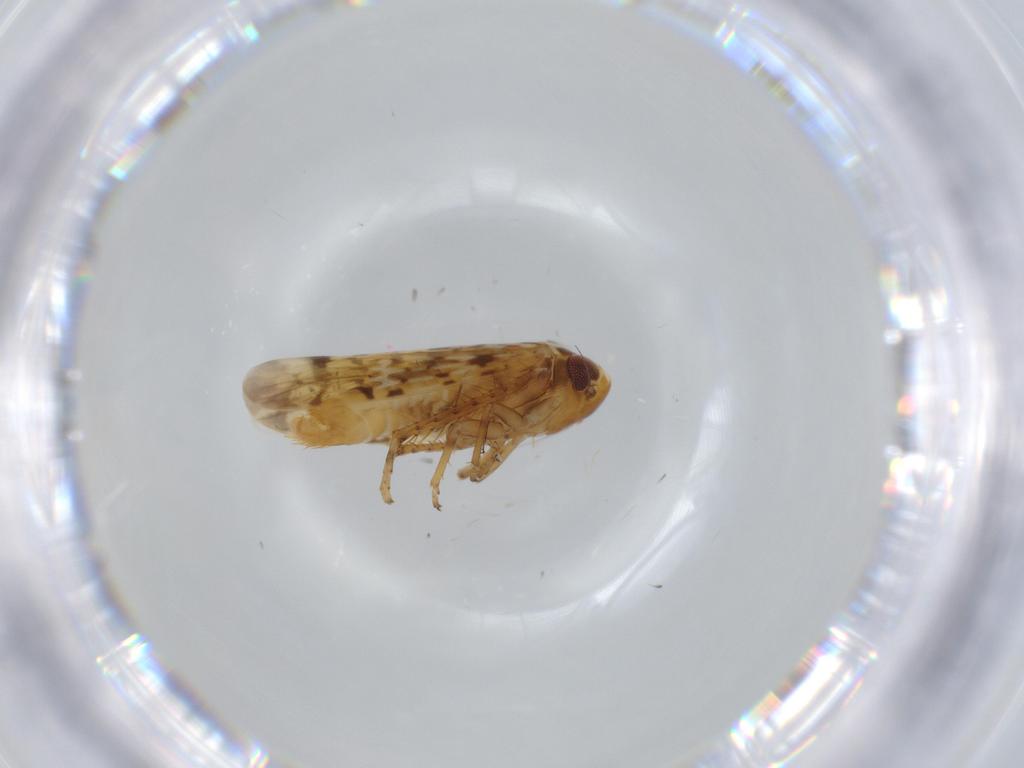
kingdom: Animalia
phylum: Arthropoda
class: Insecta
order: Hemiptera
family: Cicadellidae
